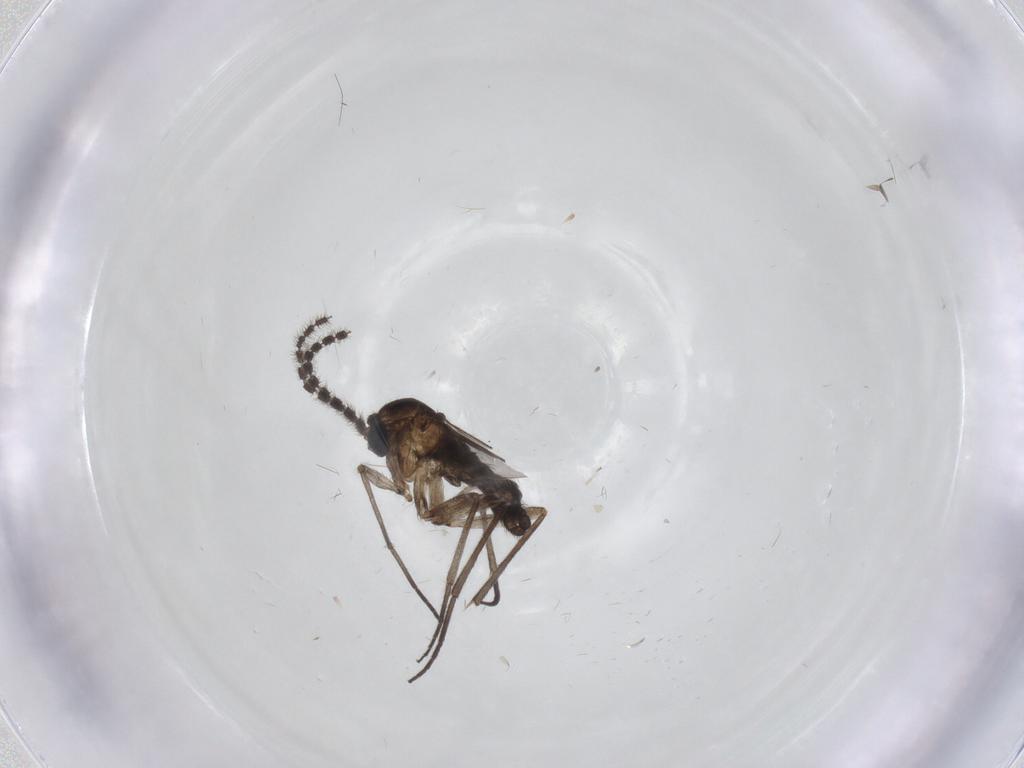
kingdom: Animalia
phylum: Arthropoda
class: Insecta
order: Diptera
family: Sciaridae
